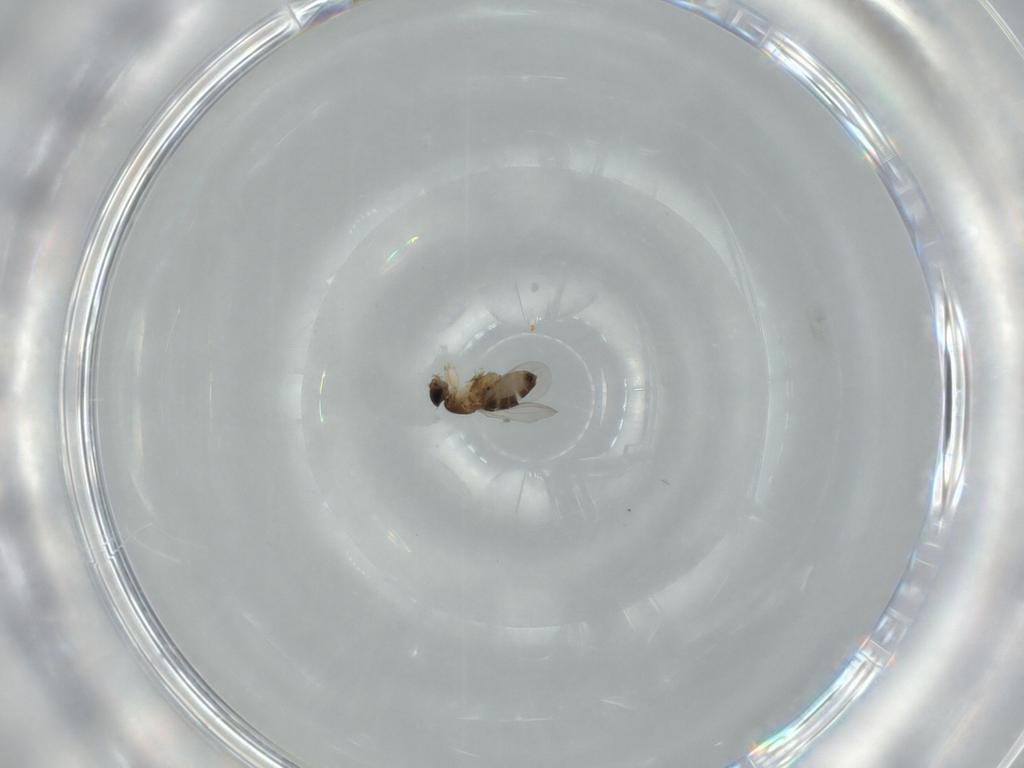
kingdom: Animalia
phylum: Arthropoda
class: Insecta
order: Diptera
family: Phoridae
